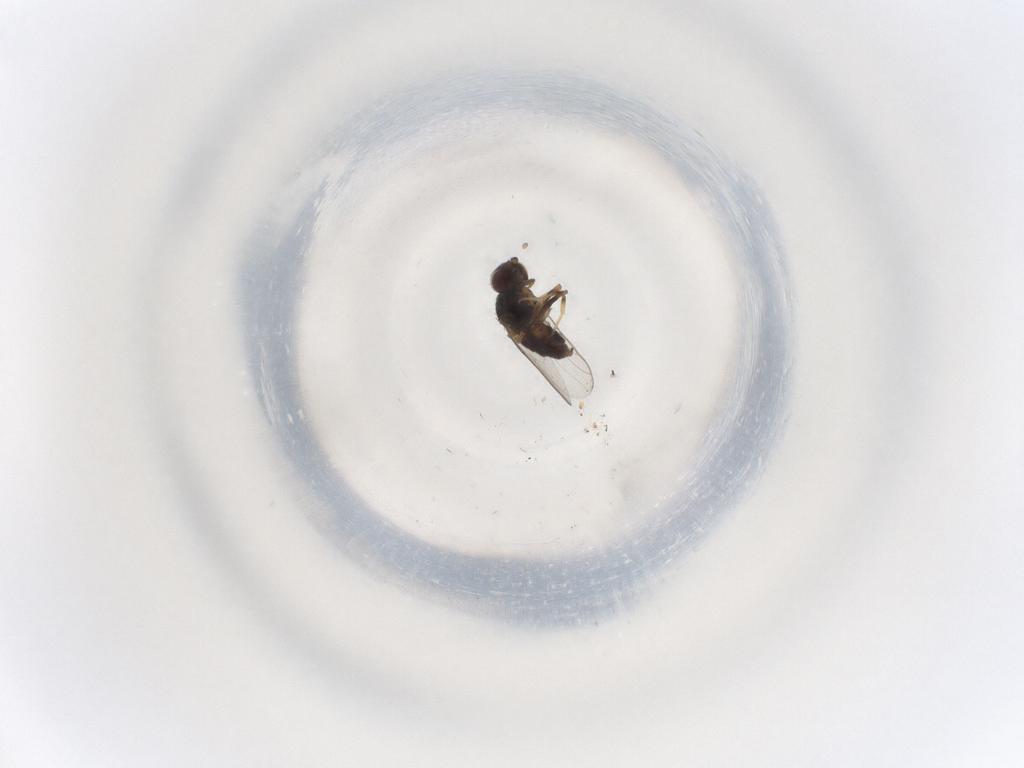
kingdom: Animalia
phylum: Arthropoda
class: Insecta
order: Diptera
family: Chloropidae
